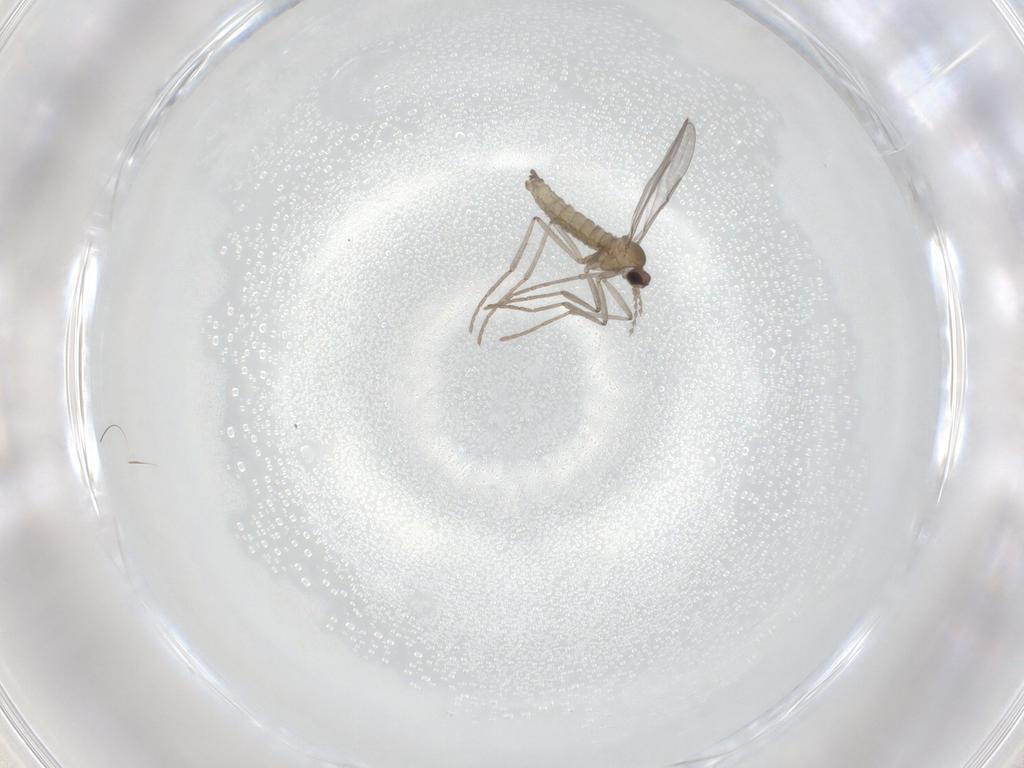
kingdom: Animalia
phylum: Arthropoda
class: Insecta
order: Diptera
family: Cecidomyiidae
